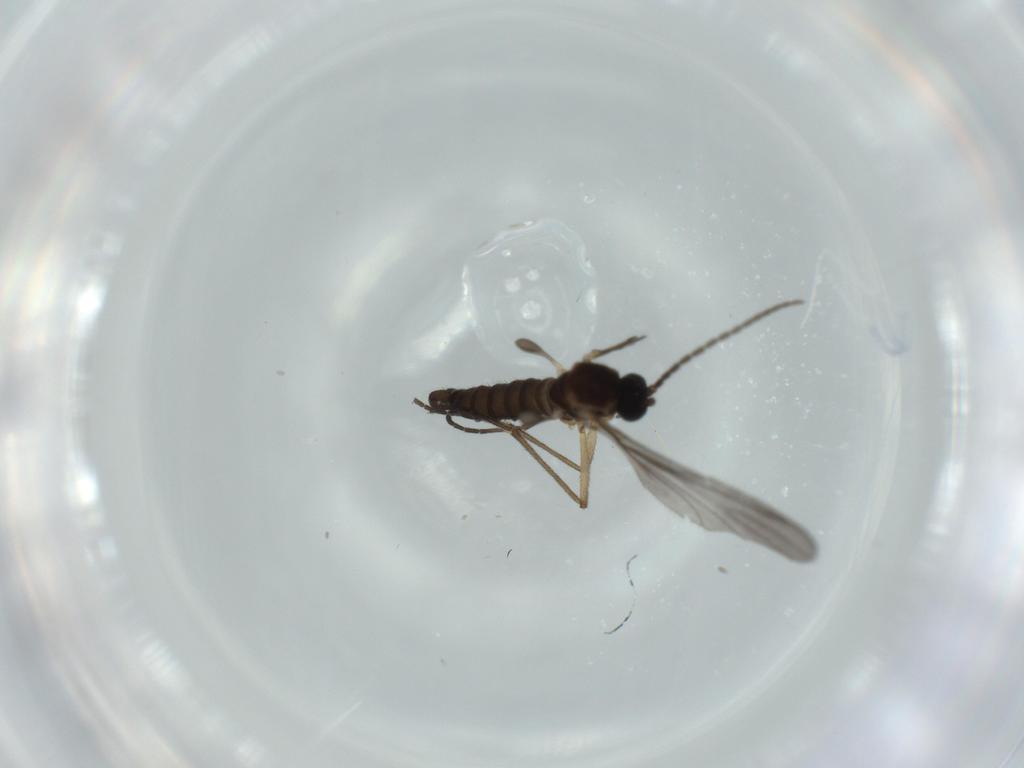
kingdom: Animalia
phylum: Arthropoda
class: Insecta
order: Diptera
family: Sciaridae
